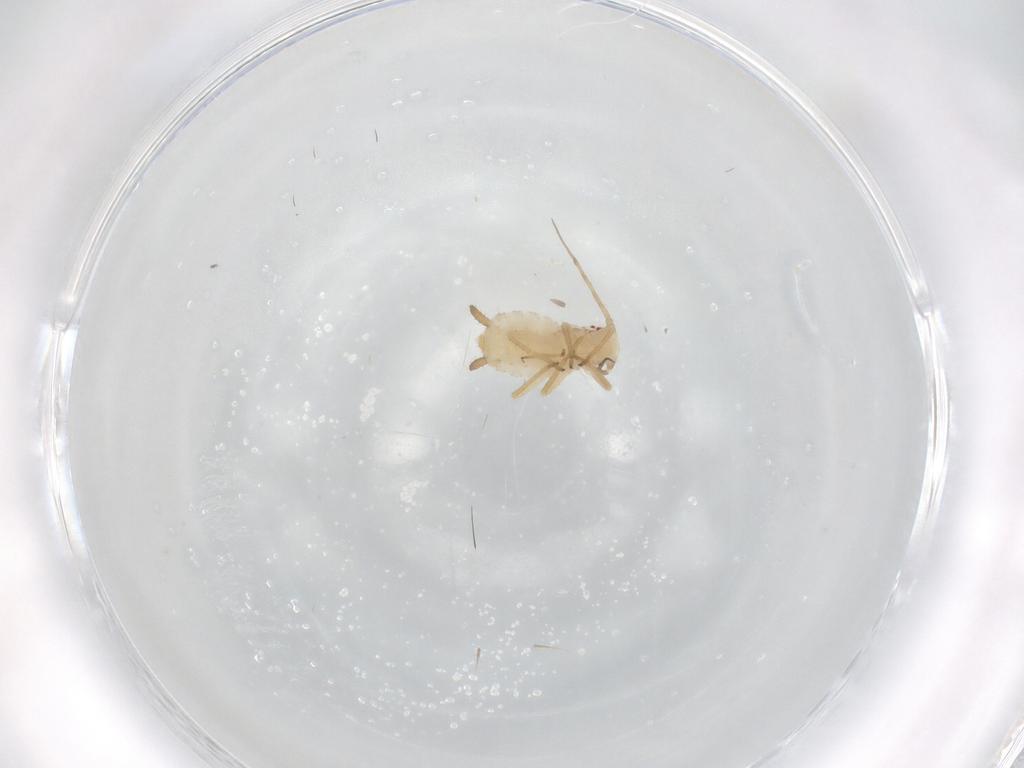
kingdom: Animalia
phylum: Arthropoda
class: Insecta
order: Hemiptera
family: Aphididae
